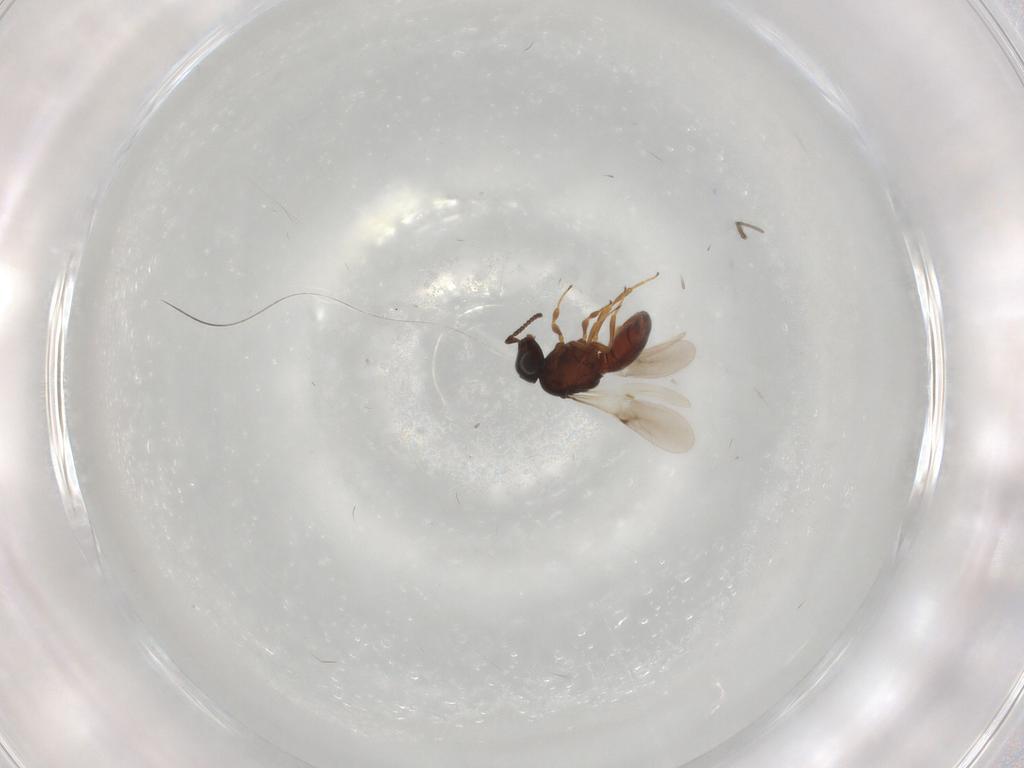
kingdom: Animalia
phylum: Arthropoda
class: Insecta
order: Hymenoptera
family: Scelionidae
